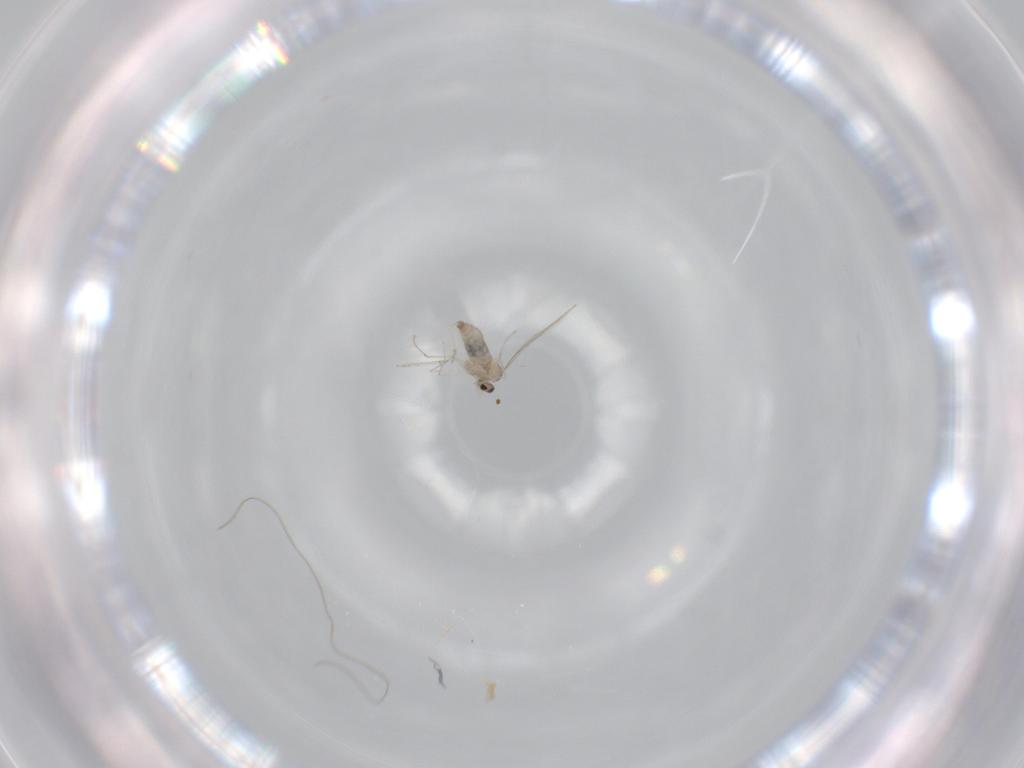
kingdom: Animalia
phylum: Arthropoda
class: Insecta
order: Diptera
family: Cecidomyiidae
